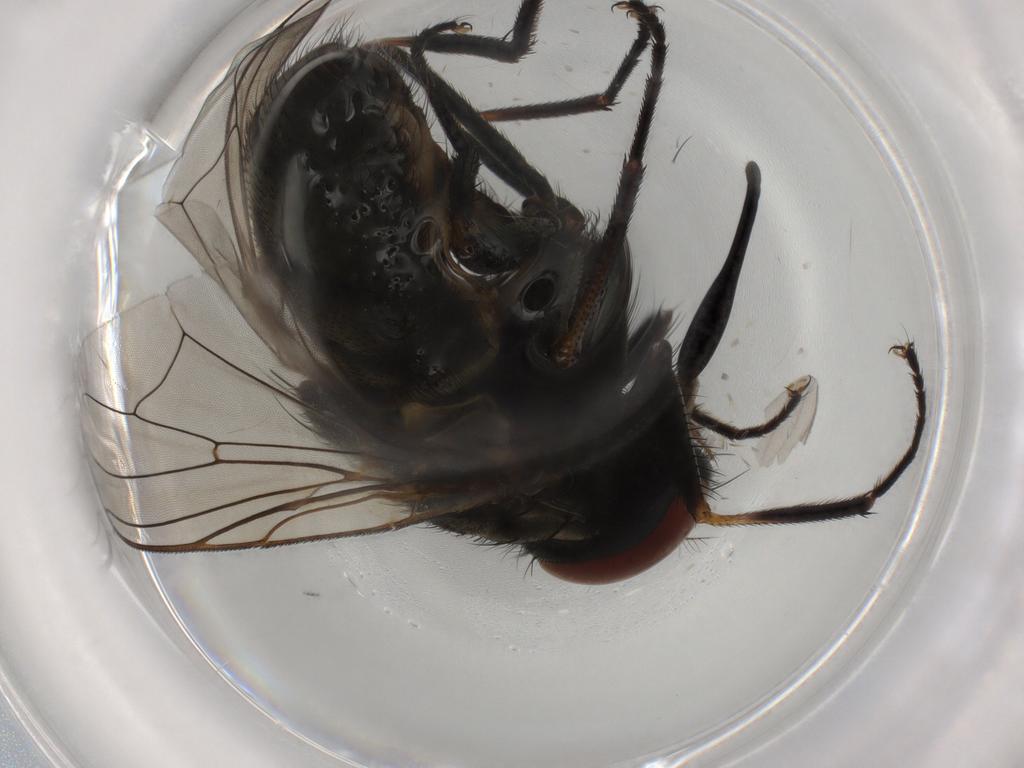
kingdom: Animalia
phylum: Arthropoda
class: Insecta
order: Diptera
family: Muscidae
